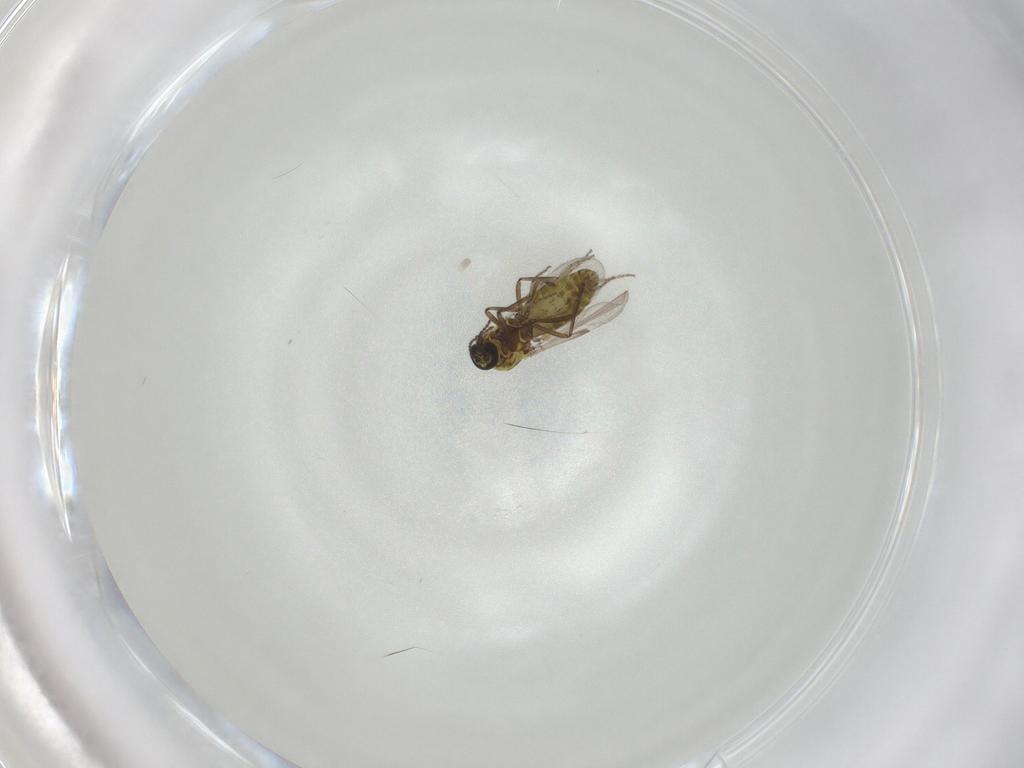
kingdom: Animalia
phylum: Arthropoda
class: Insecta
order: Diptera
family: Ceratopogonidae
